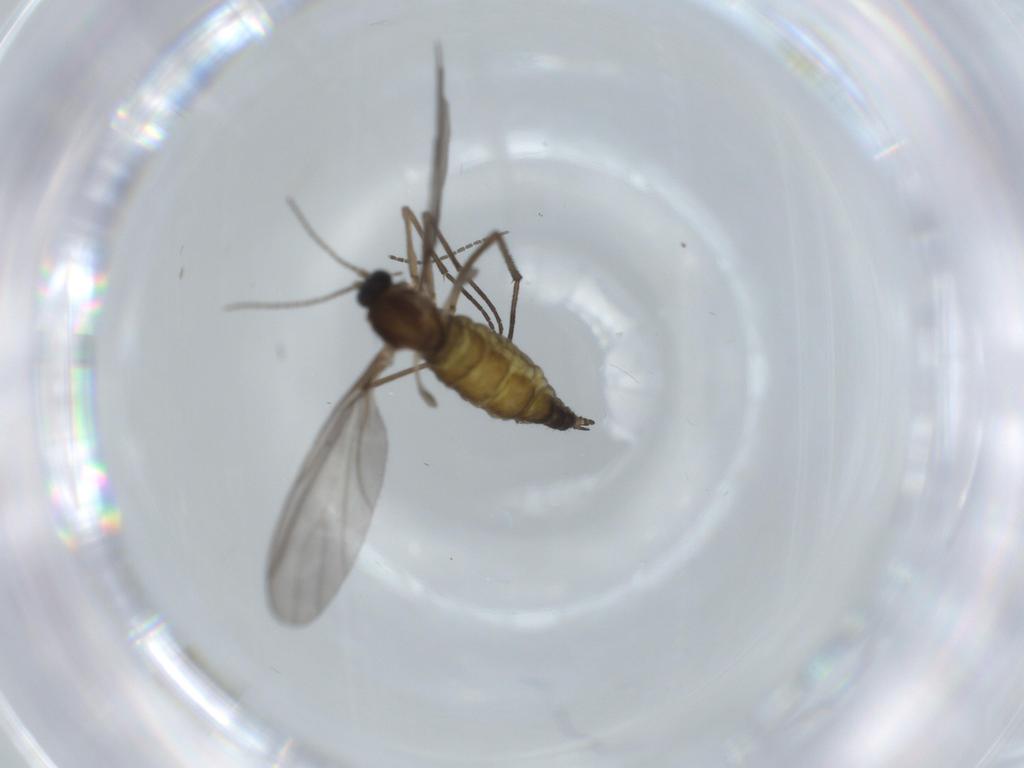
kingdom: Animalia
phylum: Arthropoda
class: Insecta
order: Diptera
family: Sciaridae
